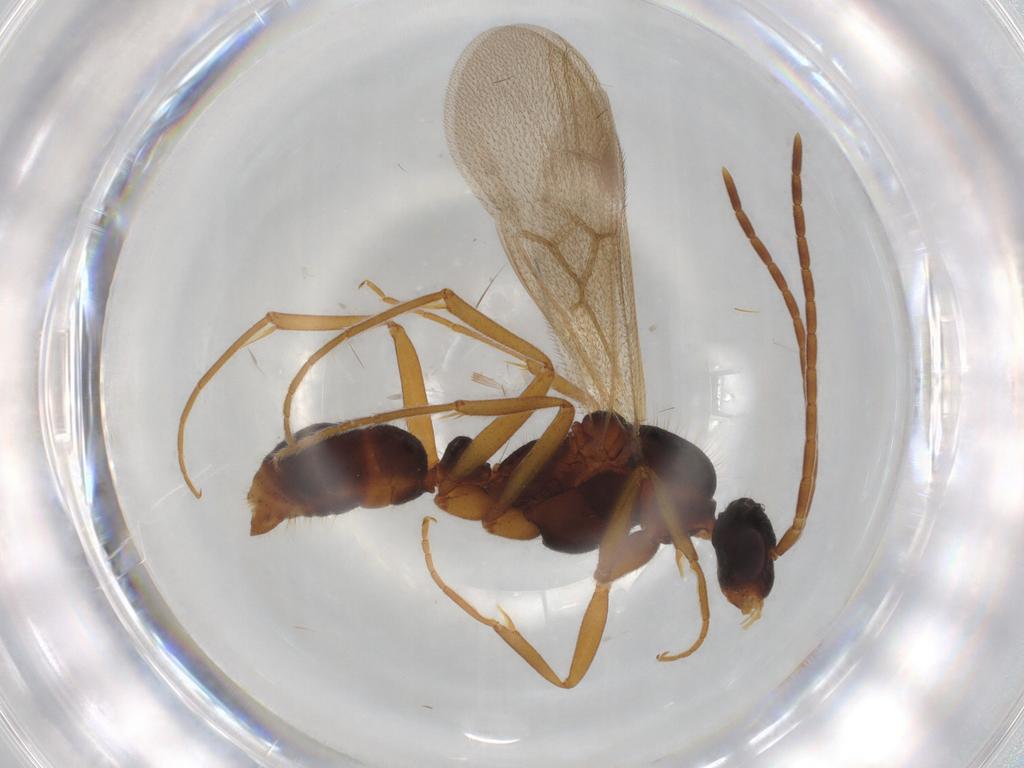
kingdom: Animalia
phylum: Arthropoda
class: Insecta
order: Hymenoptera
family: Formicidae
